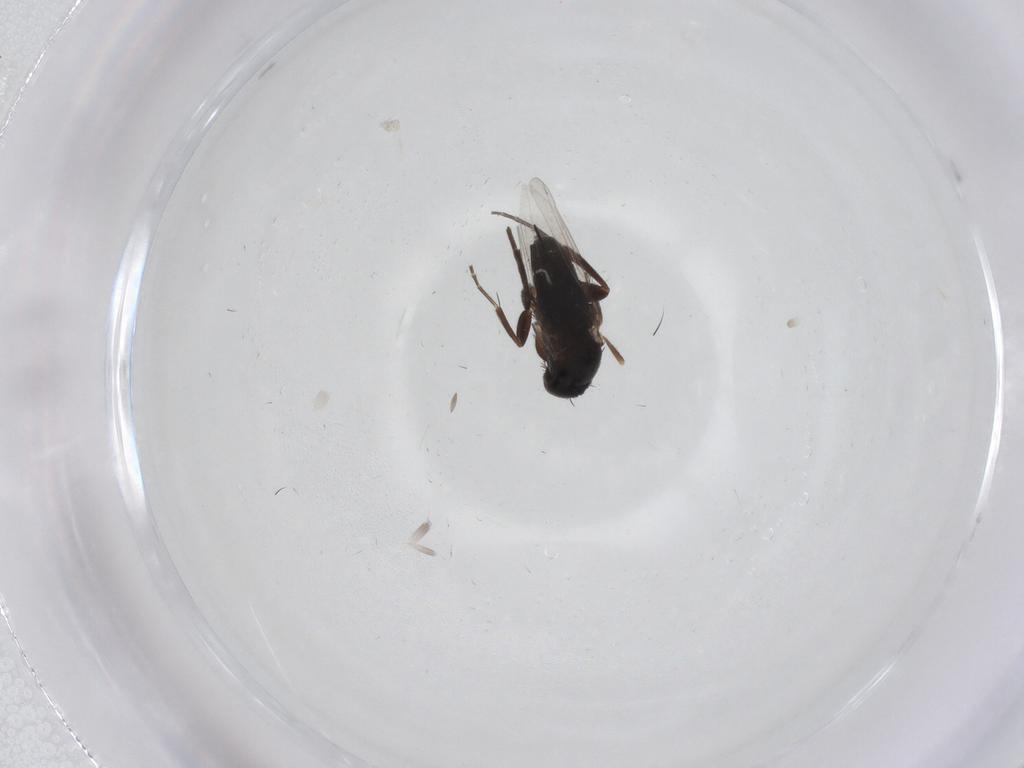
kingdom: Animalia
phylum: Arthropoda
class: Insecta
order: Diptera
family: Phoridae
